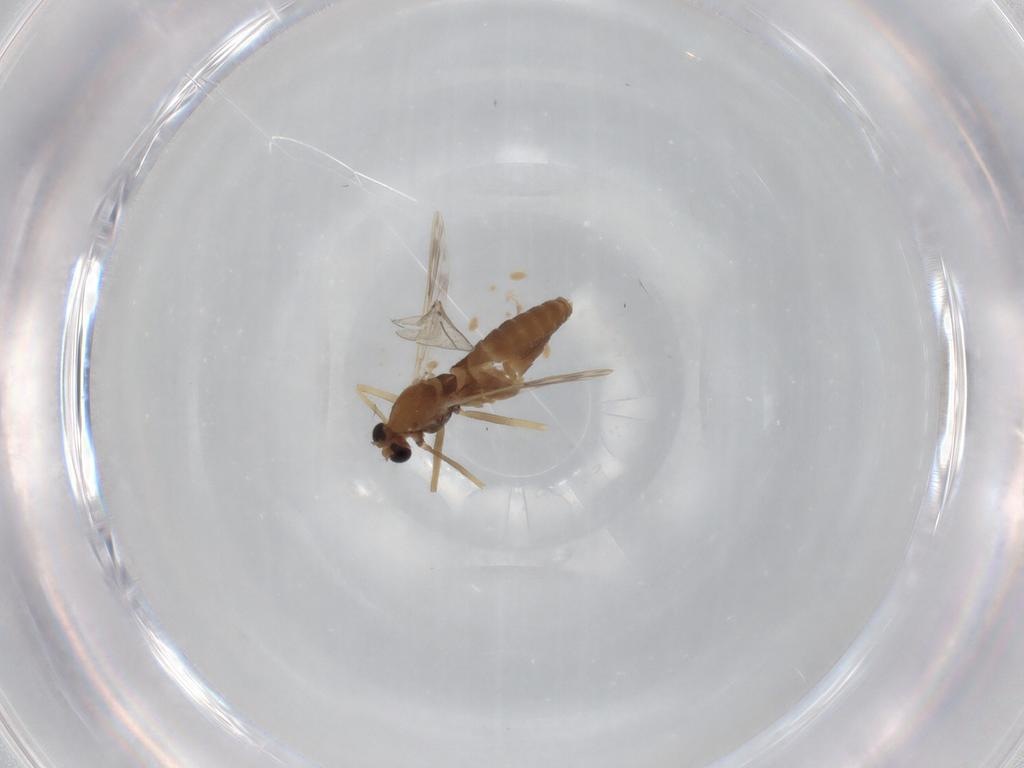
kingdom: Animalia
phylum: Arthropoda
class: Insecta
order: Diptera
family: Chironomidae
